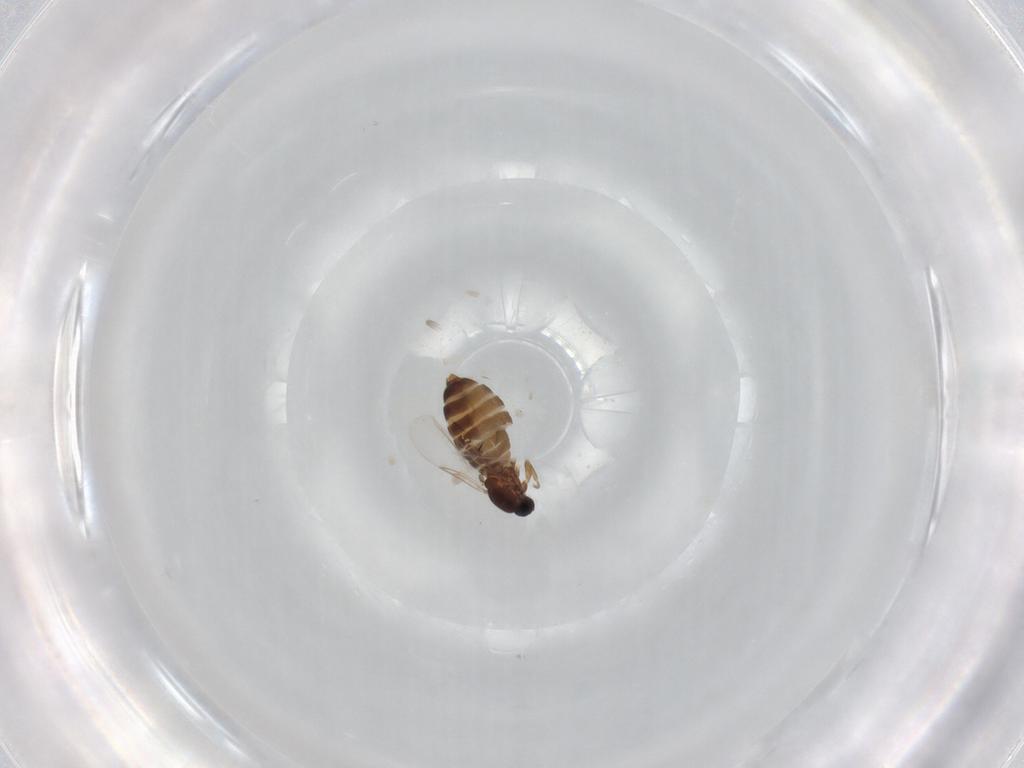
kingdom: Animalia
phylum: Arthropoda
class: Insecta
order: Diptera
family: Scatopsidae
